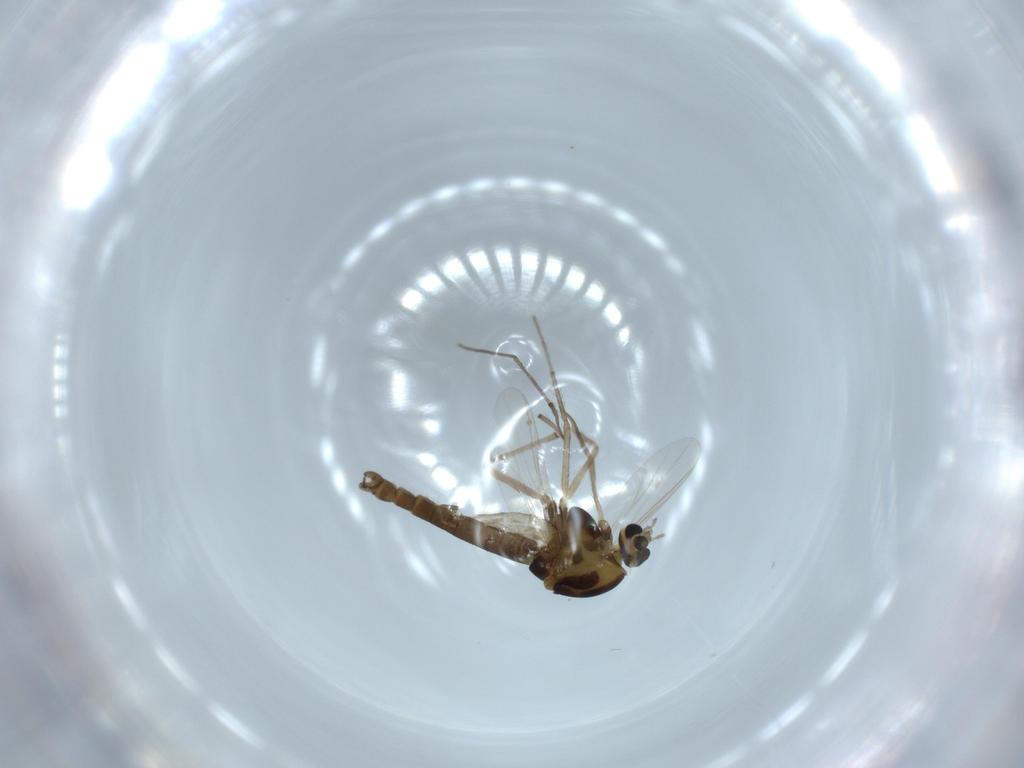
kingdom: Animalia
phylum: Arthropoda
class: Insecta
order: Diptera
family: Chironomidae
